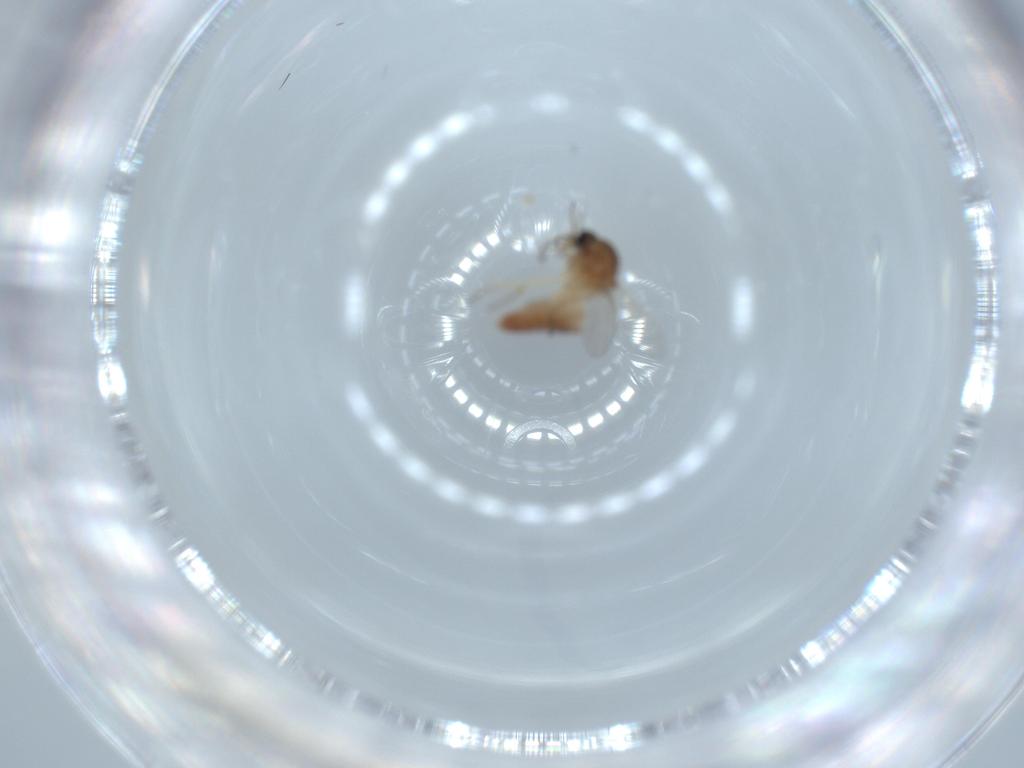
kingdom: Animalia
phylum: Arthropoda
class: Insecta
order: Diptera
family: Ceratopogonidae
